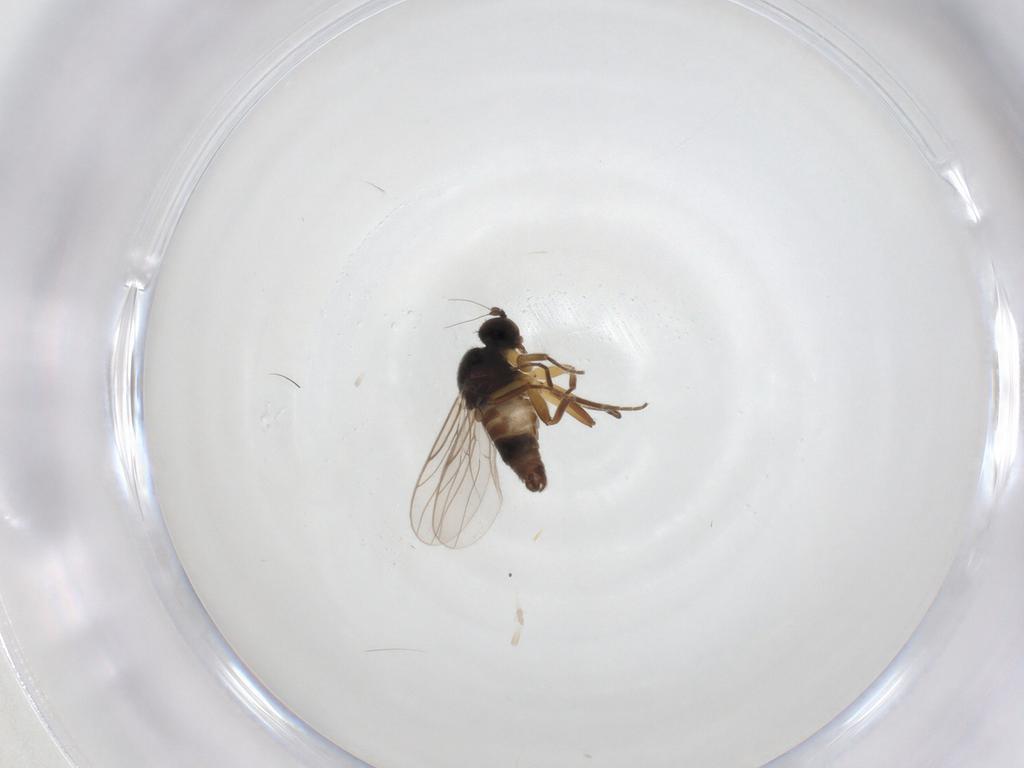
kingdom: Animalia
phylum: Arthropoda
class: Insecta
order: Diptera
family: Hybotidae
